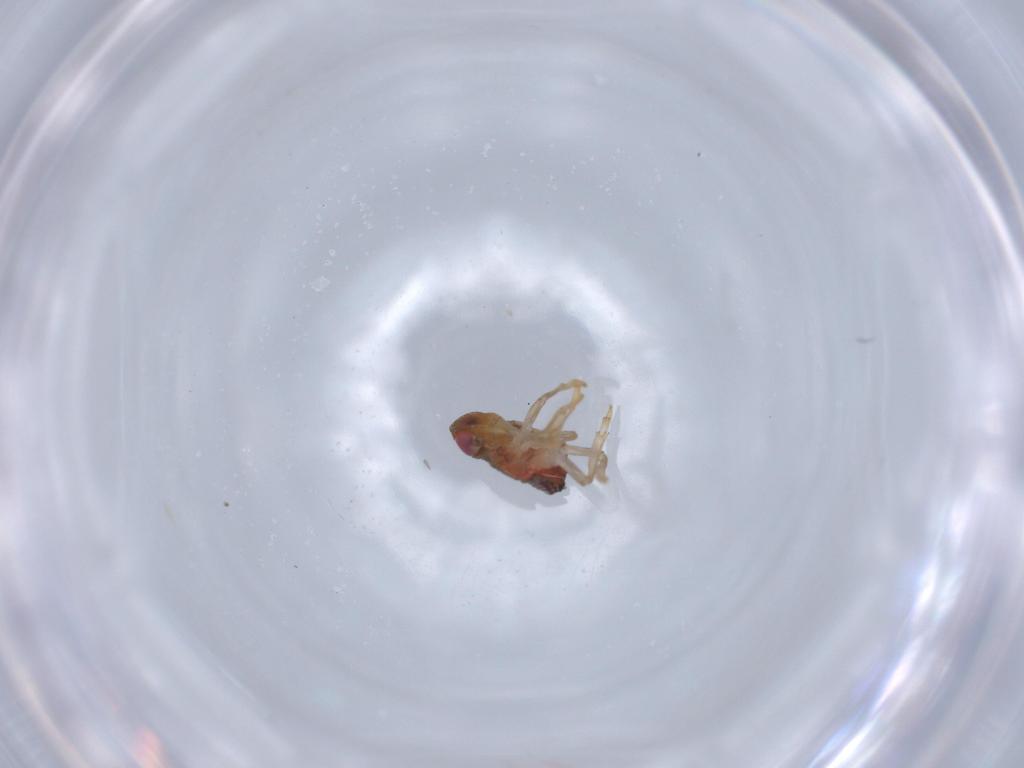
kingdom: Animalia
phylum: Arthropoda
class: Insecta
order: Hemiptera
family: Issidae
